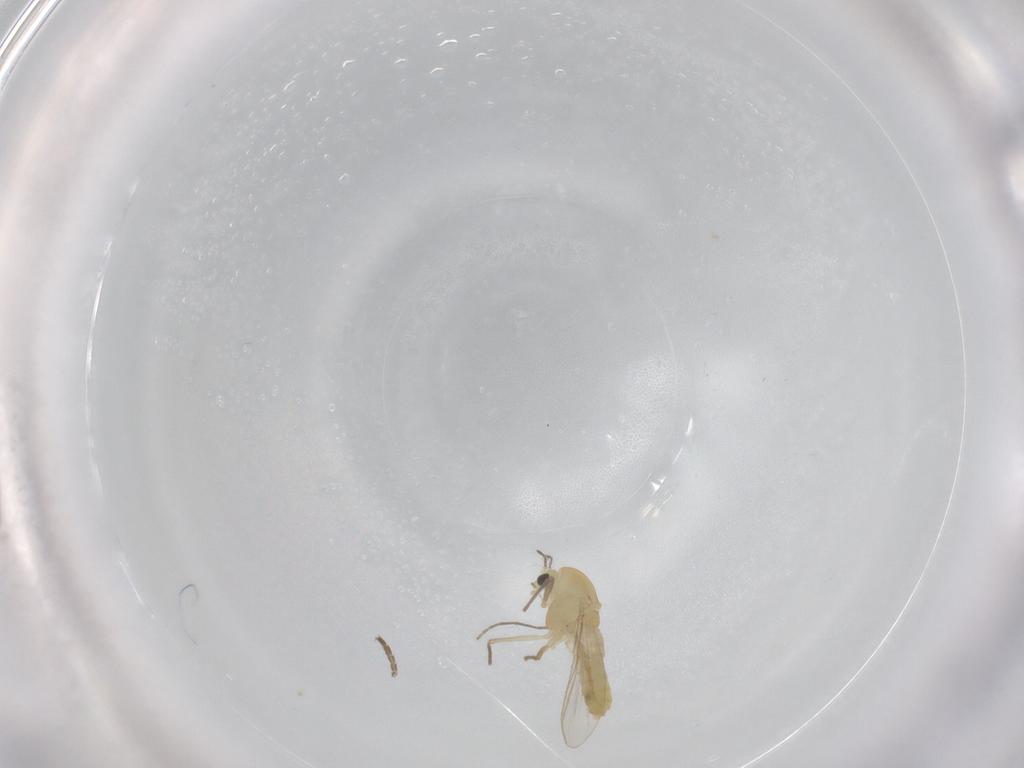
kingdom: Animalia
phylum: Arthropoda
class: Insecta
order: Diptera
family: Chironomidae
